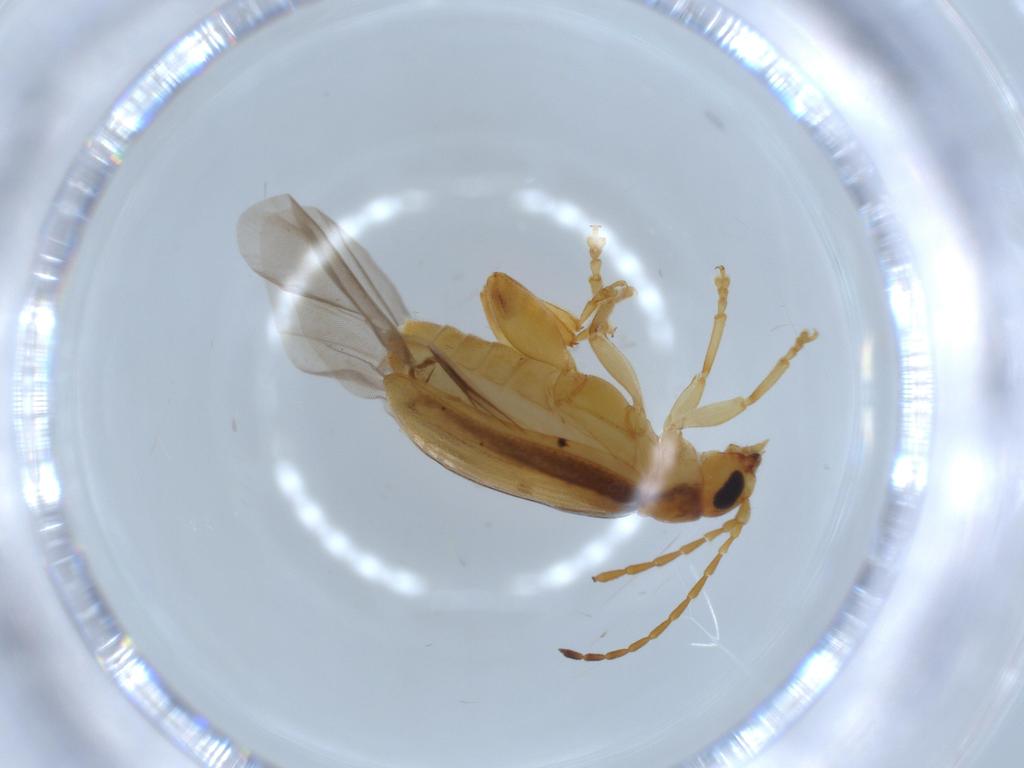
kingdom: Animalia
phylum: Arthropoda
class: Insecta
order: Coleoptera
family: Chrysomelidae
